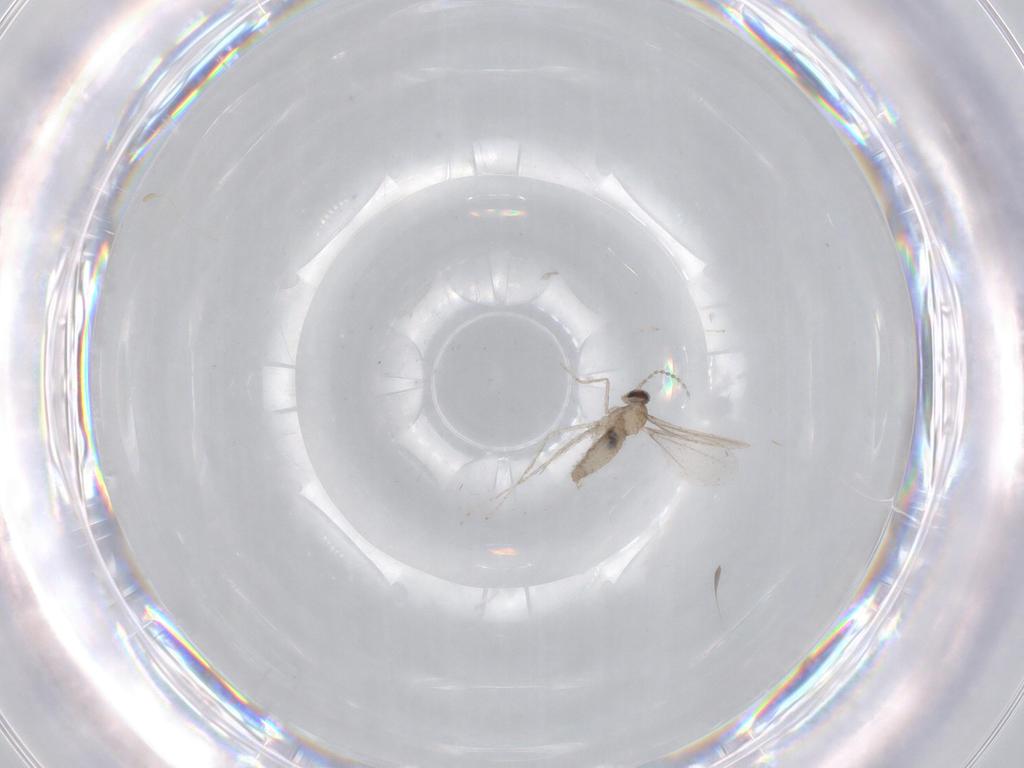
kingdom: Animalia
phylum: Arthropoda
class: Insecta
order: Diptera
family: Cecidomyiidae
